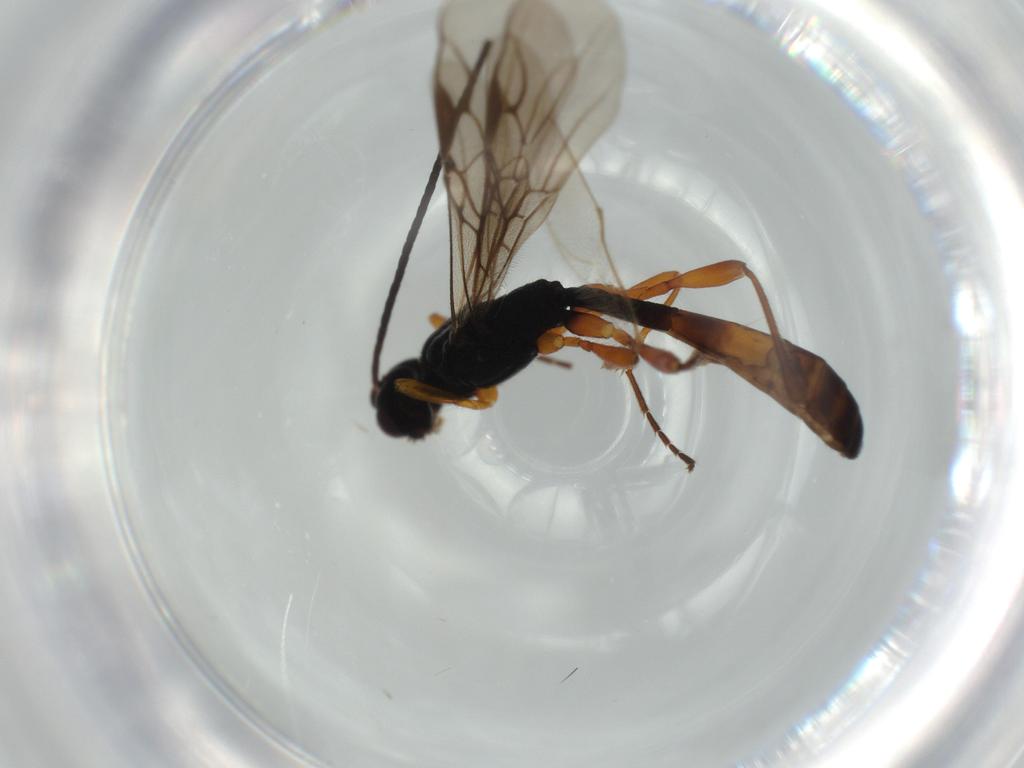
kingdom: Animalia
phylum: Arthropoda
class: Insecta
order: Hymenoptera
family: Braconidae
